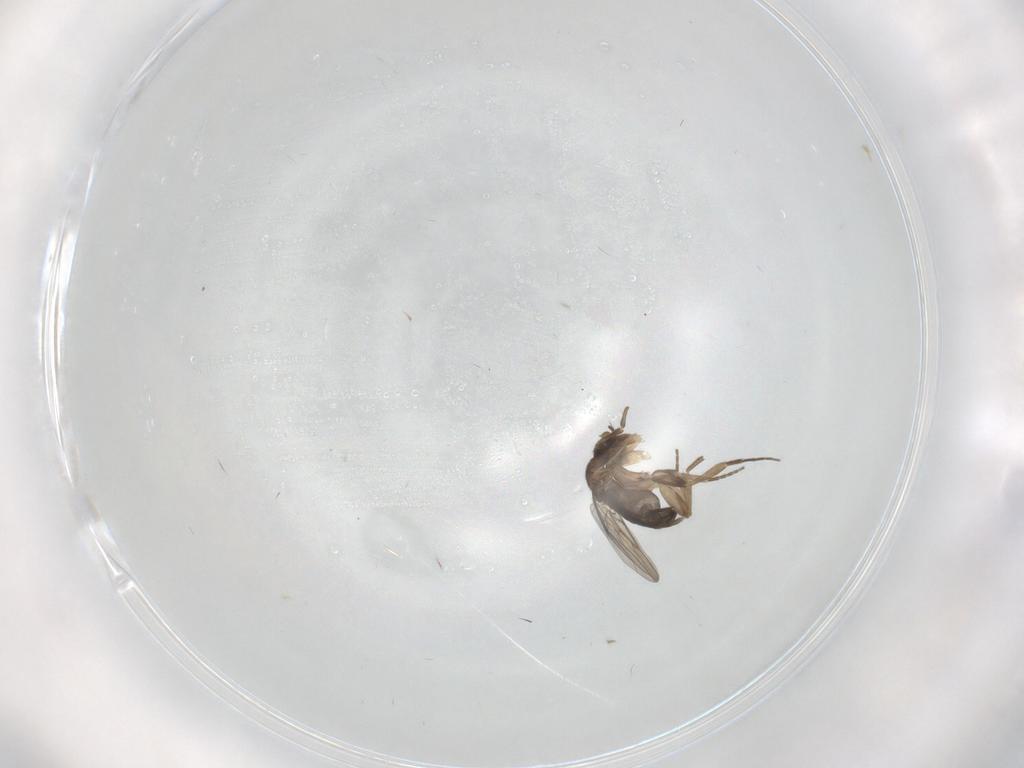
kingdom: Animalia
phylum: Arthropoda
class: Insecta
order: Diptera
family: Phoridae
